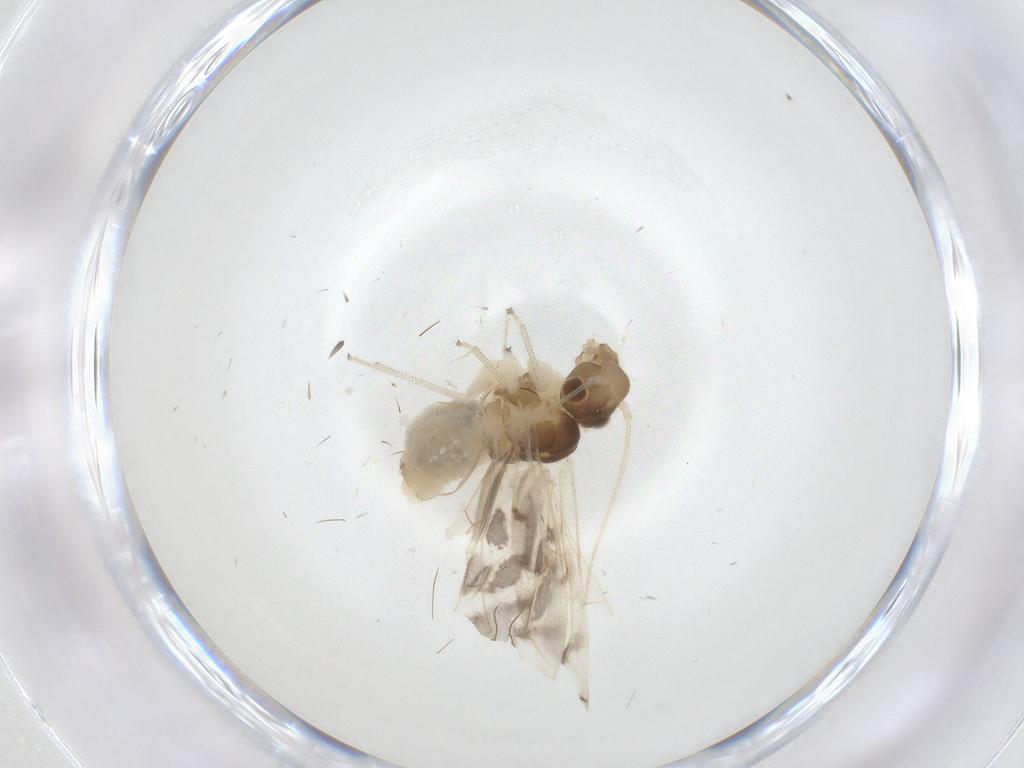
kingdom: Animalia
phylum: Arthropoda
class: Insecta
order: Psocodea
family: Caeciliusidae
